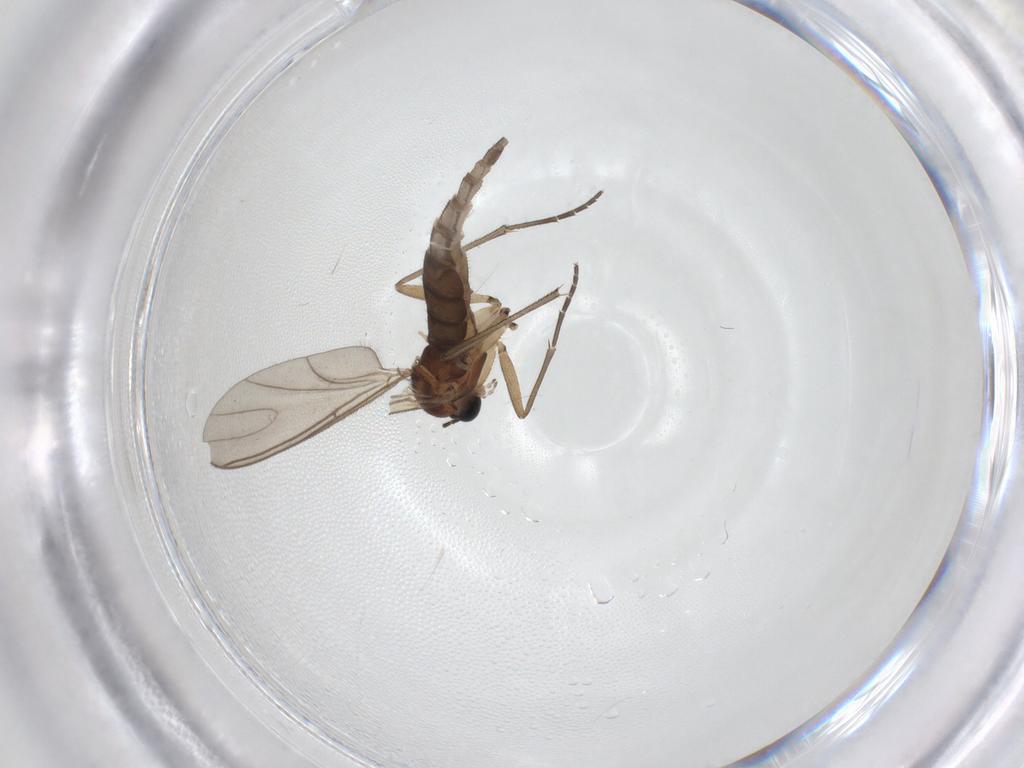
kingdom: Animalia
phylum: Arthropoda
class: Insecta
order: Diptera
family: Sciaridae
